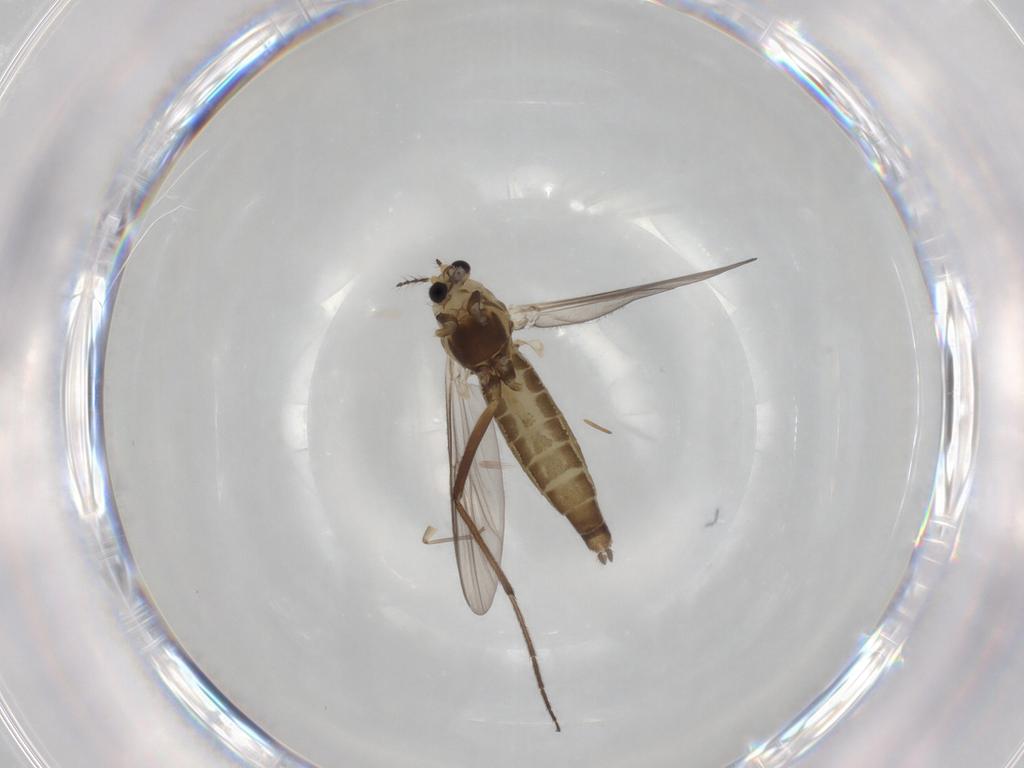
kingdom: Animalia
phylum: Arthropoda
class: Insecta
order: Diptera
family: Chironomidae
